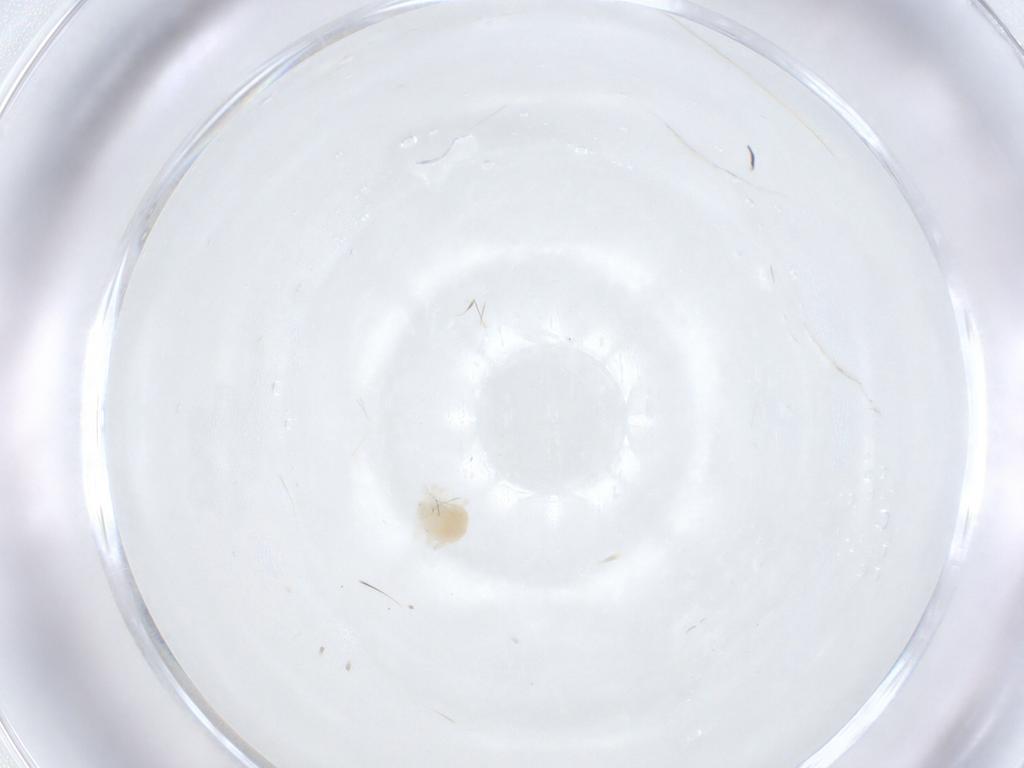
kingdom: Animalia
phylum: Arthropoda
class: Arachnida
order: Trombidiformes
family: Anystidae
